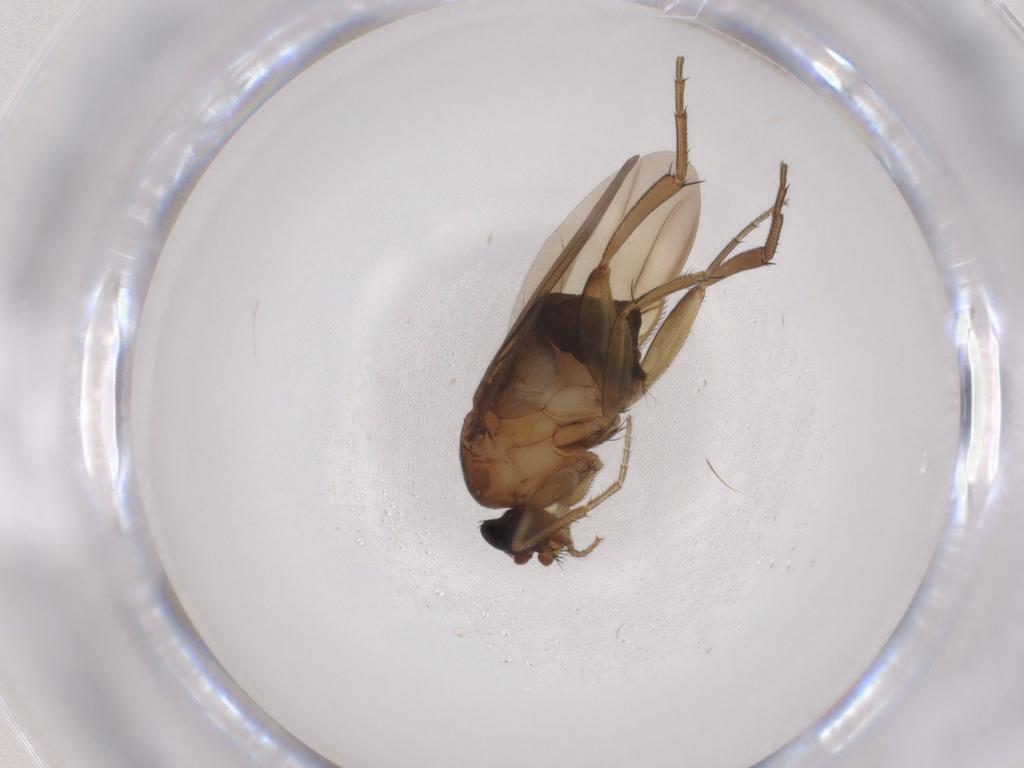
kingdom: Animalia
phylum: Arthropoda
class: Insecta
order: Diptera
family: Phoridae
